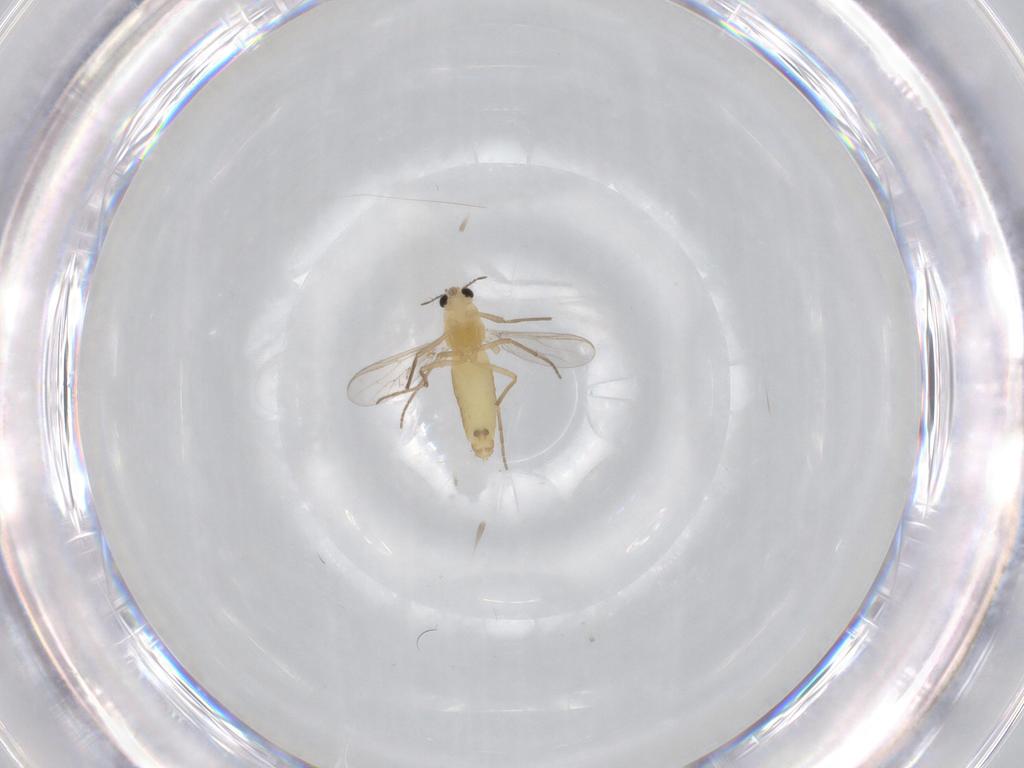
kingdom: Animalia
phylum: Arthropoda
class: Insecta
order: Diptera
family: Chironomidae
